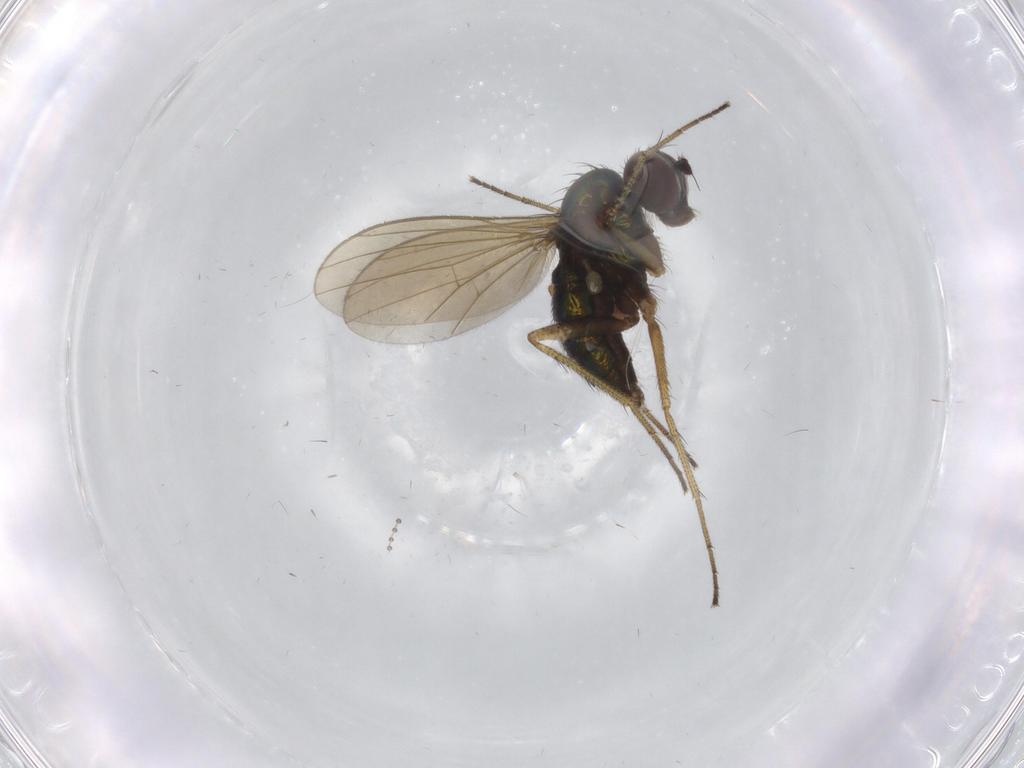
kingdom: Animalia
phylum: Arthropoda
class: Insecta
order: Diptera
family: Dolichopodidae
